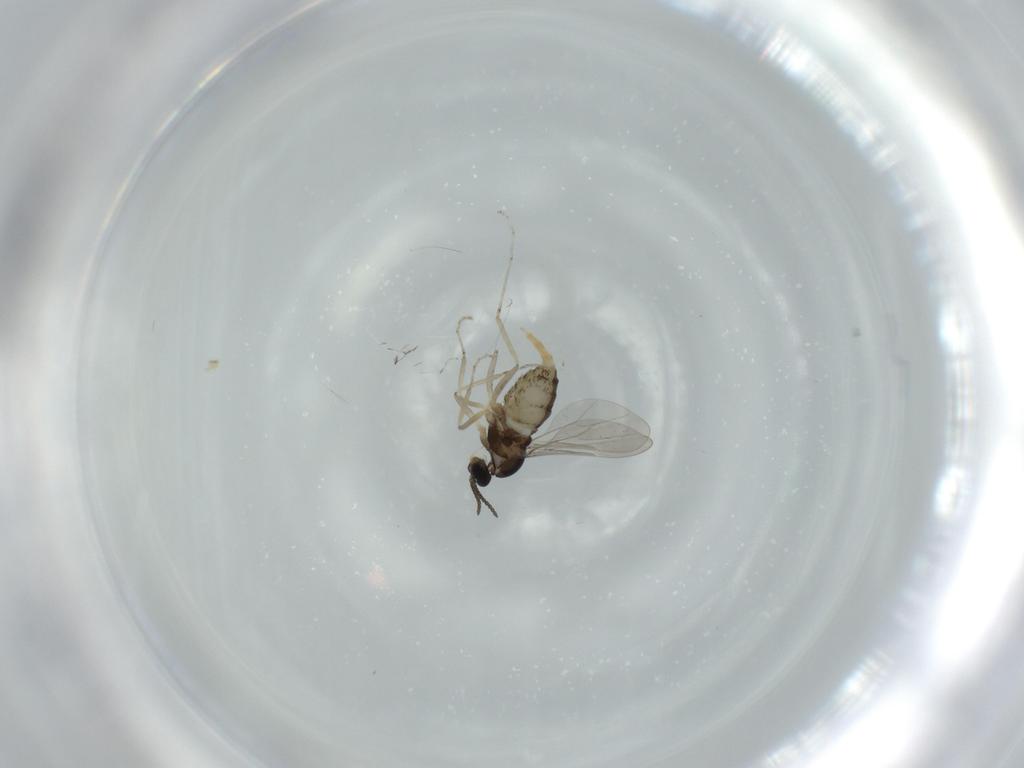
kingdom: Animalia
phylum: Arthropoda
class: Insecta
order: Diptera
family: Cecidomyiidae
